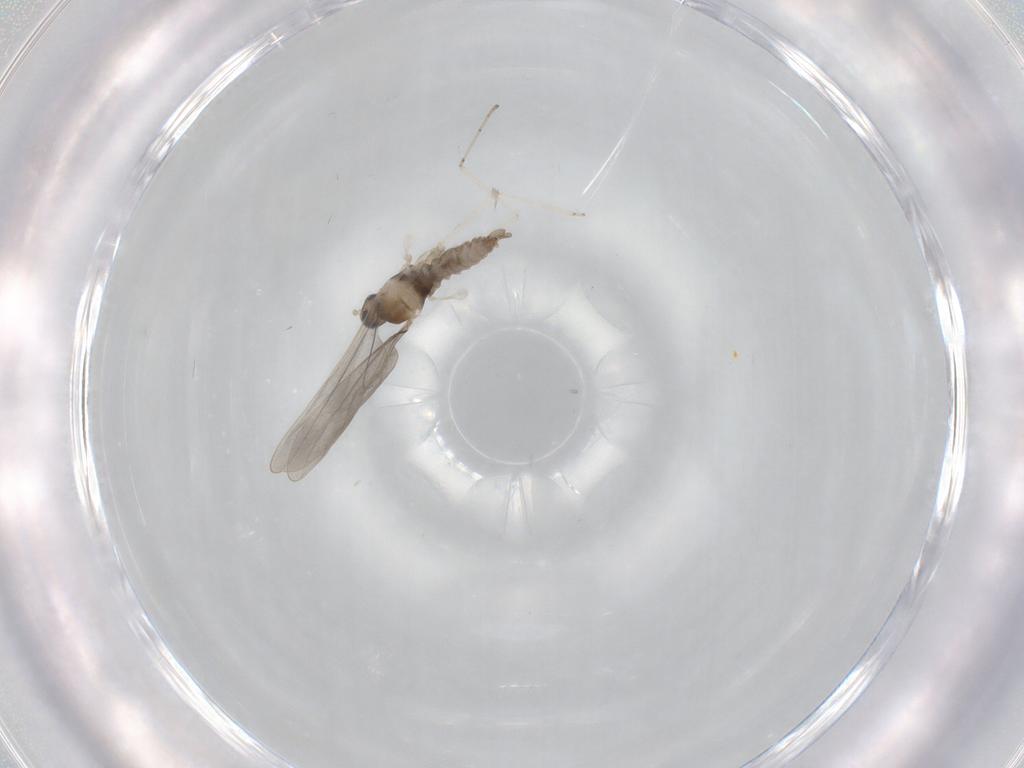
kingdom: Animalia
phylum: Arthropoda
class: Insecta
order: Diptera
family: Cecidomyiidae
